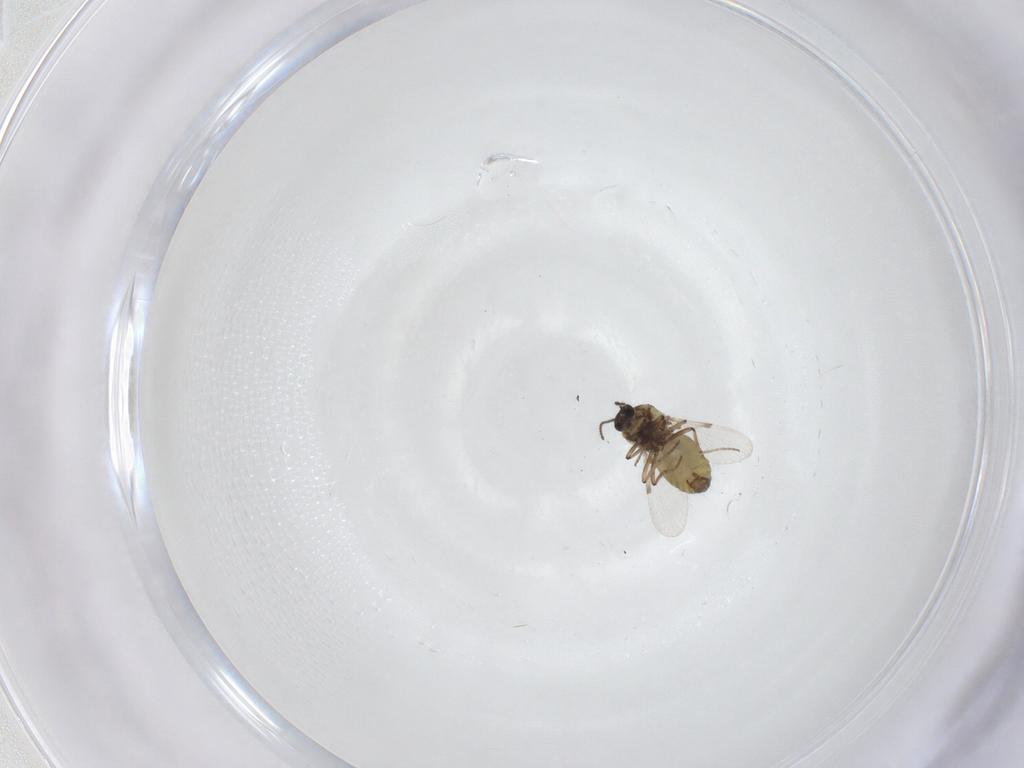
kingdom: Animalia
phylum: Arthropoda
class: Insecta
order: Diptera
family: Ceratopogonidae
